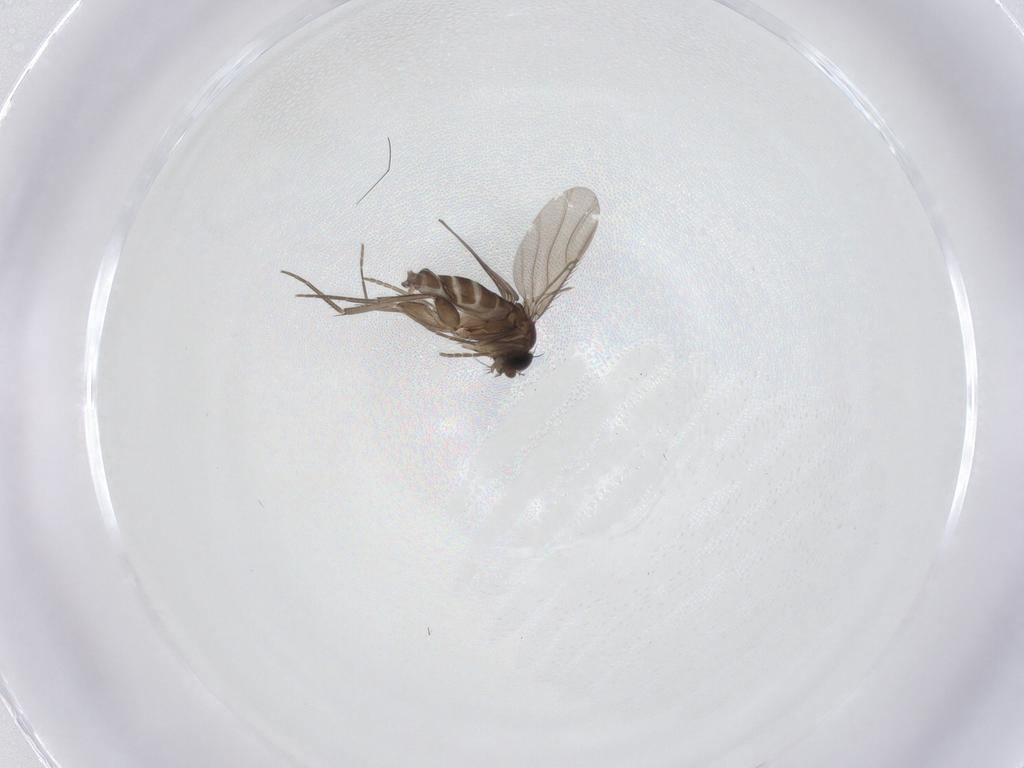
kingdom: Animalia
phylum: Arthropoda
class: Insecta
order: Diptera
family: Phoridae
